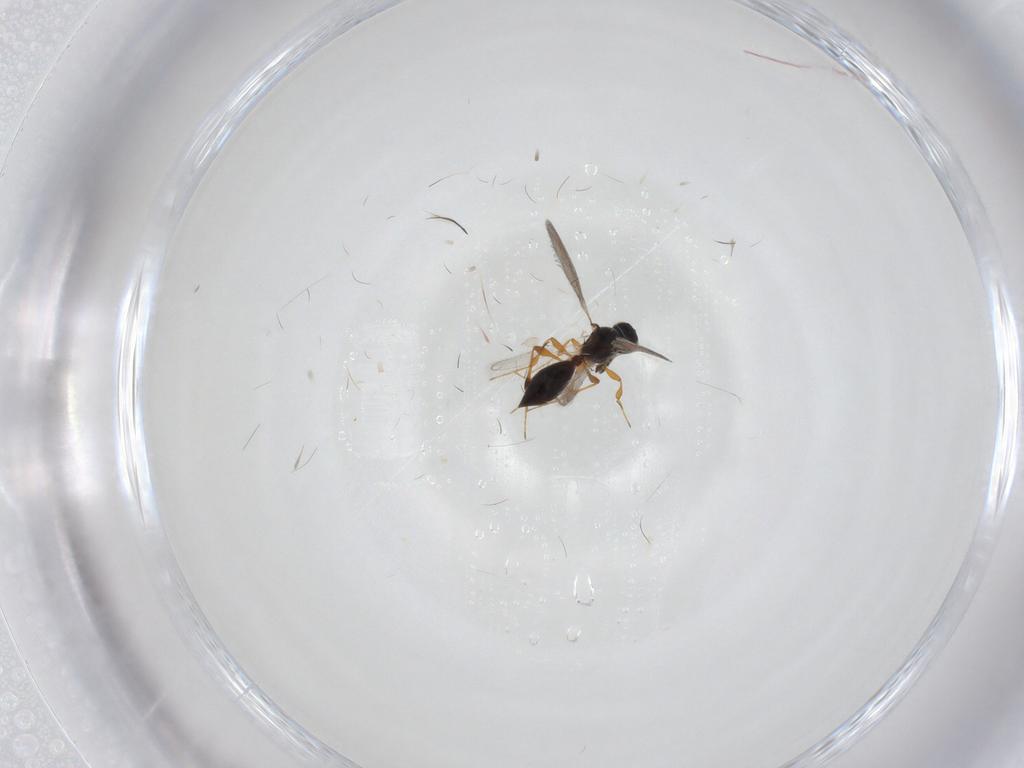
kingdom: Animalia
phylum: Arthropoda
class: Insecta
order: Hymenoptera
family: Platygastridae
